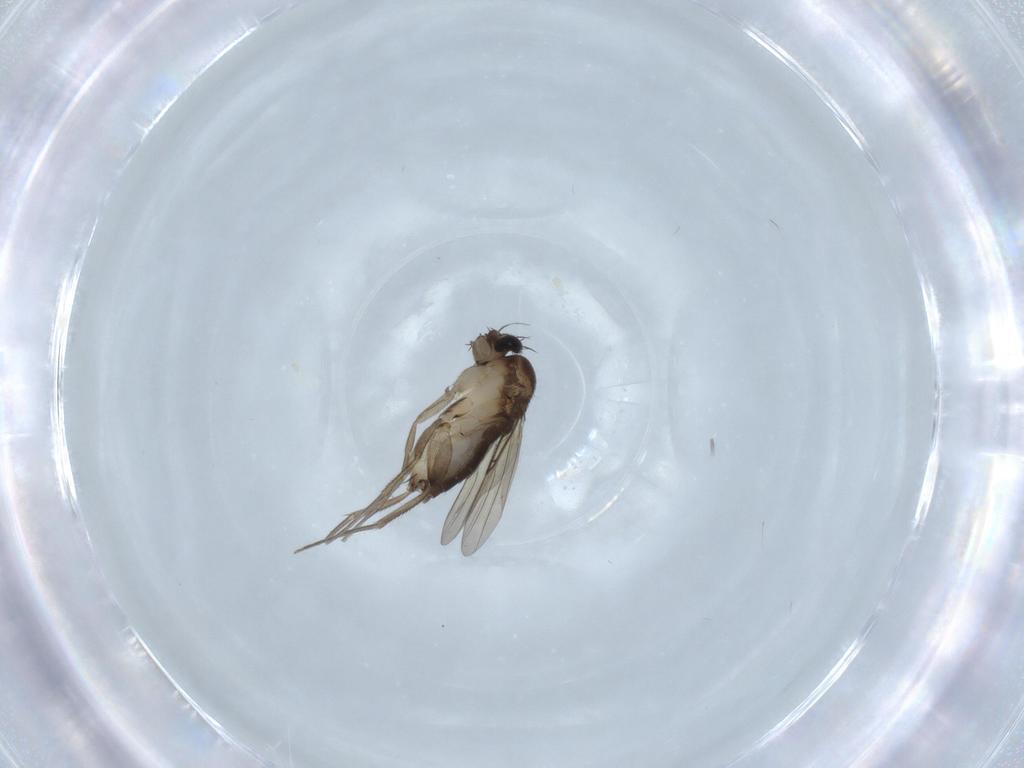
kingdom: Animalia
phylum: Arthropoda
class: Insecta
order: Diptera
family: Phoridae
